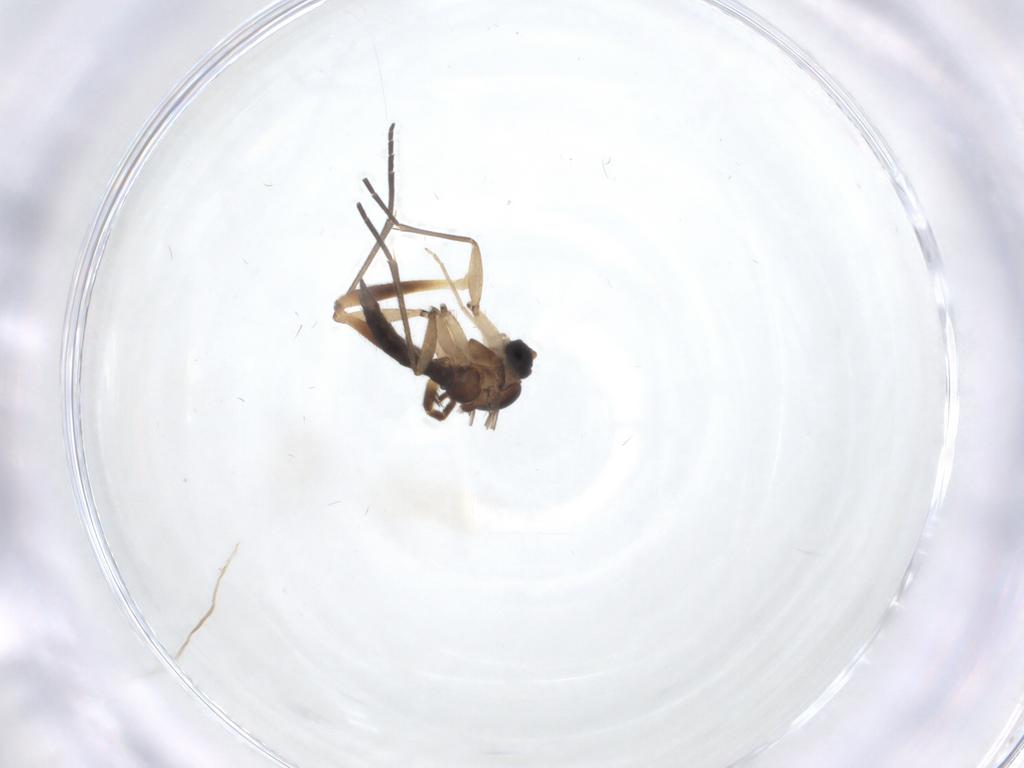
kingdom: Animalia
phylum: Arthropoda
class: Insecta
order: Diptera
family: Sciaridae
